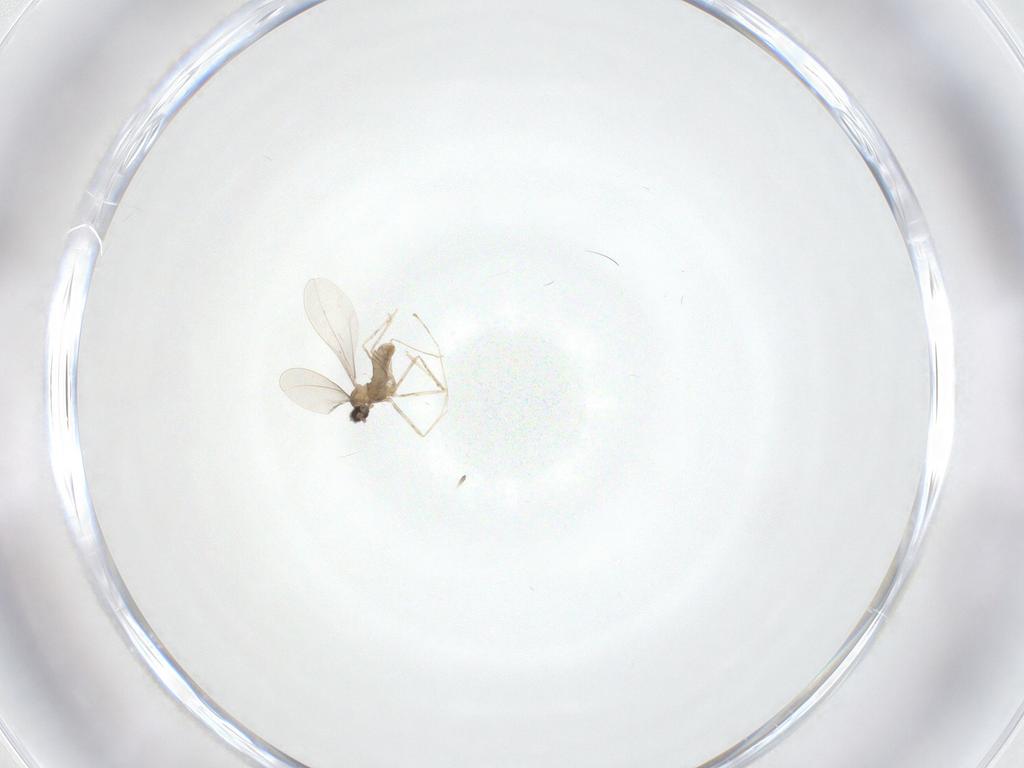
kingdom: Animalia
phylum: Arthropoda
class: Insecta
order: Diptera
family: Cecidomyiidae
